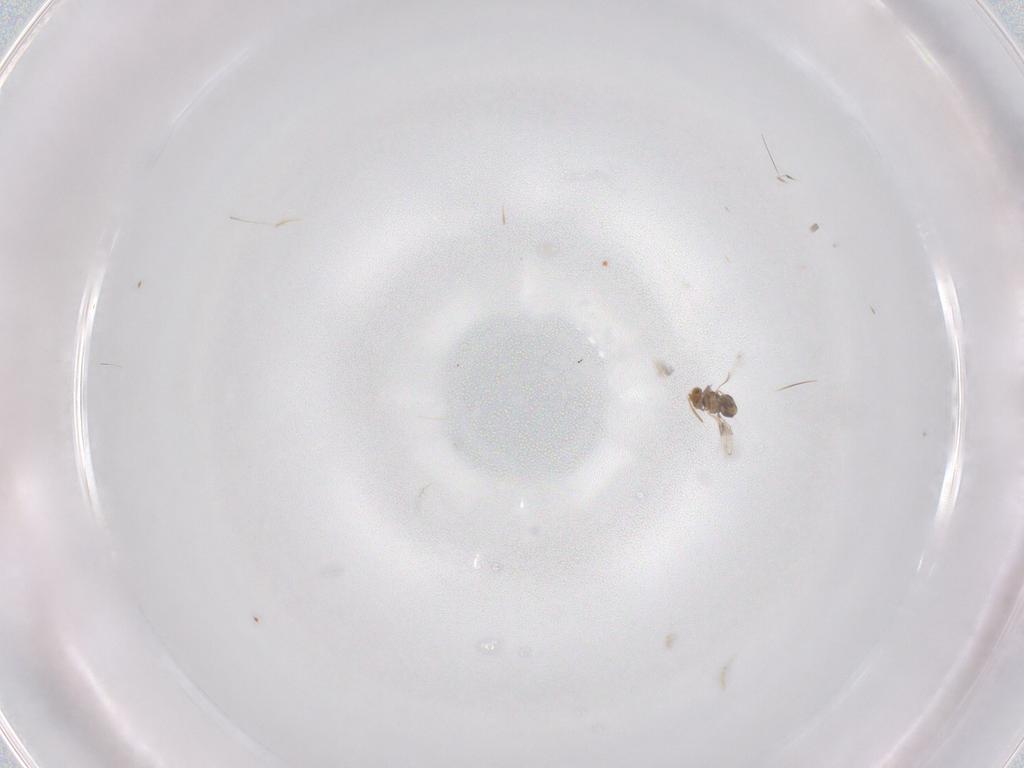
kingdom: Animalia
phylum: Arthropoda
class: Insecta
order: Hymenoptera
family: Aphelinidae
